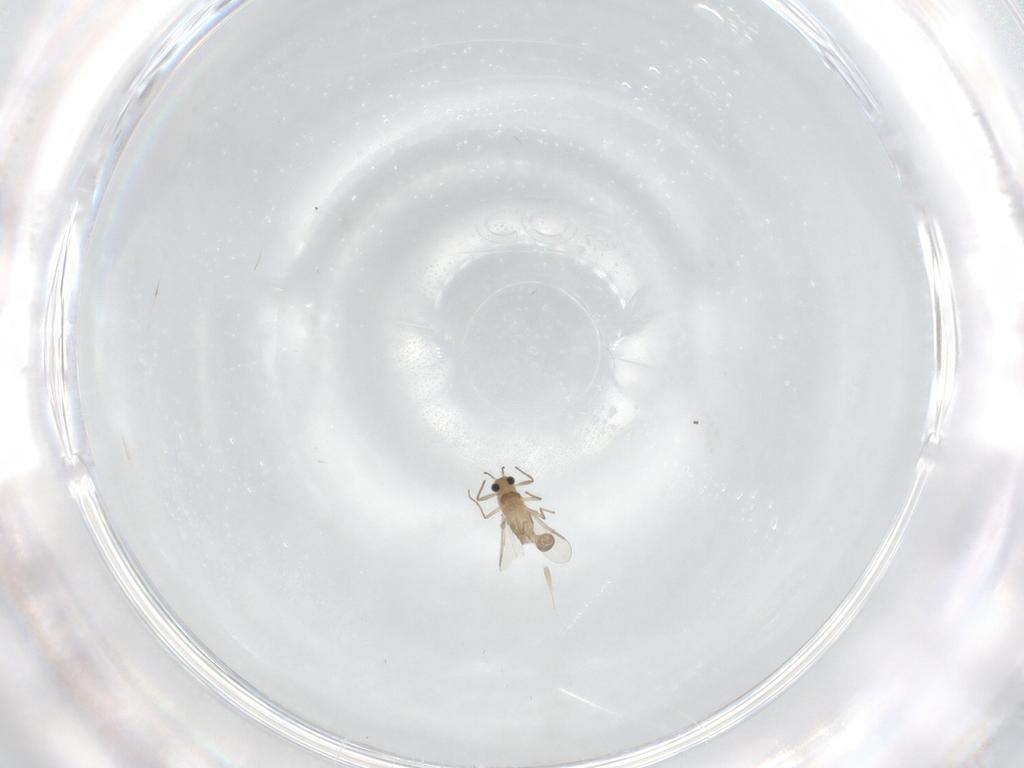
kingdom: Animalia
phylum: Arthropoda
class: Insecta
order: Diptera
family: Chironomidae
